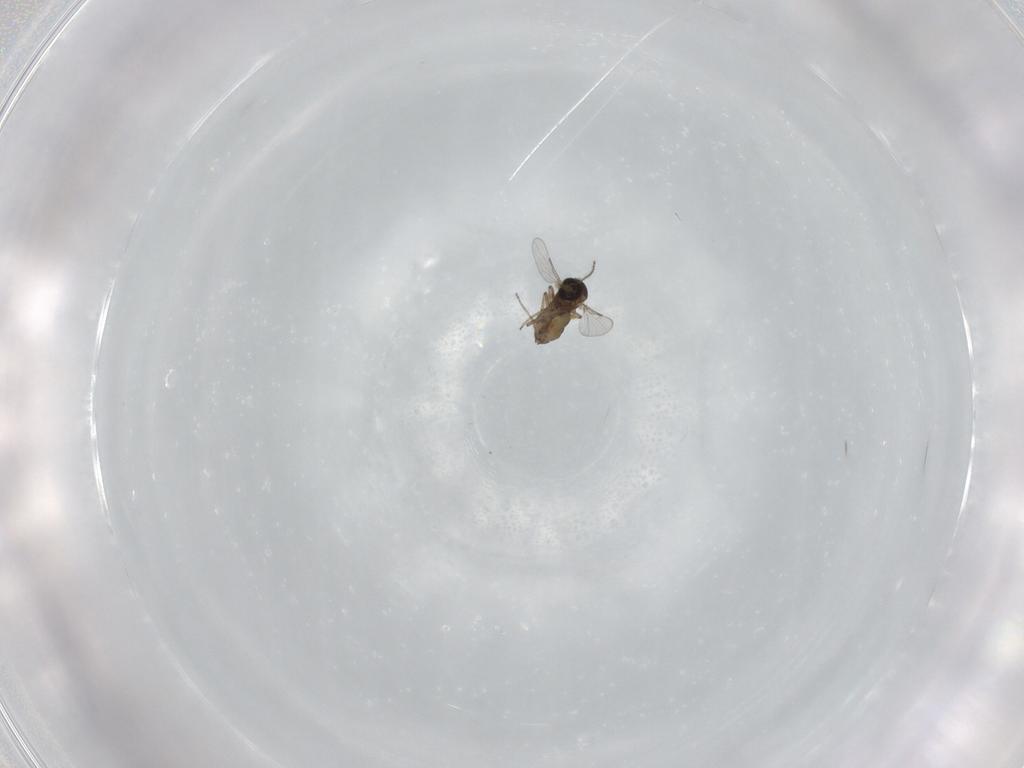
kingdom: Animalia
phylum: Arthropoda
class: Insecta
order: Diptera
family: Ceratopogonidae
